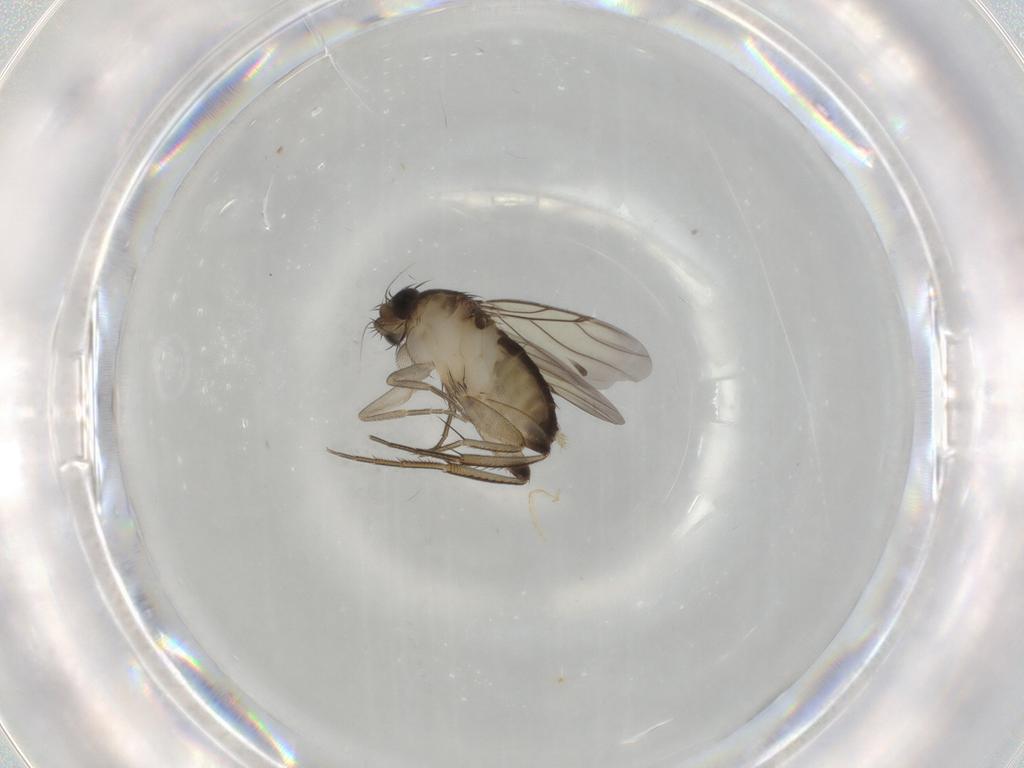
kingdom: Animalia
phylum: Arthropoda
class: Insecta
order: Diptera
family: Phoridae
